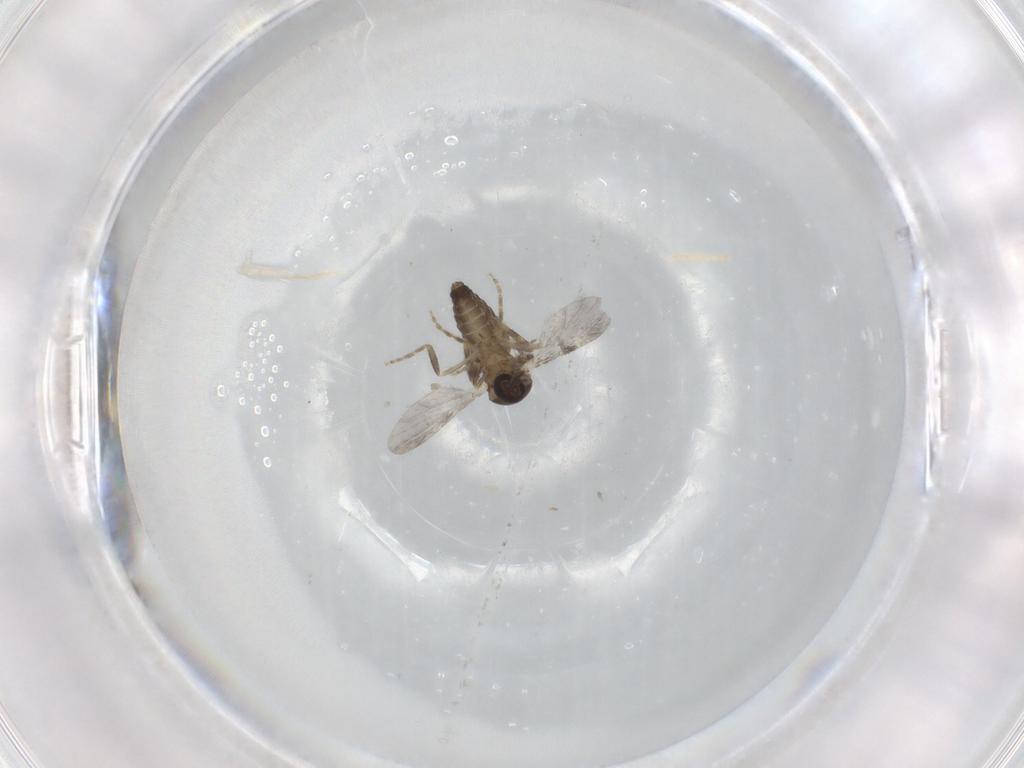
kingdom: Animalia
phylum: Arthropoda
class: Insecta
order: Diptera
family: Ceratopogonidae
